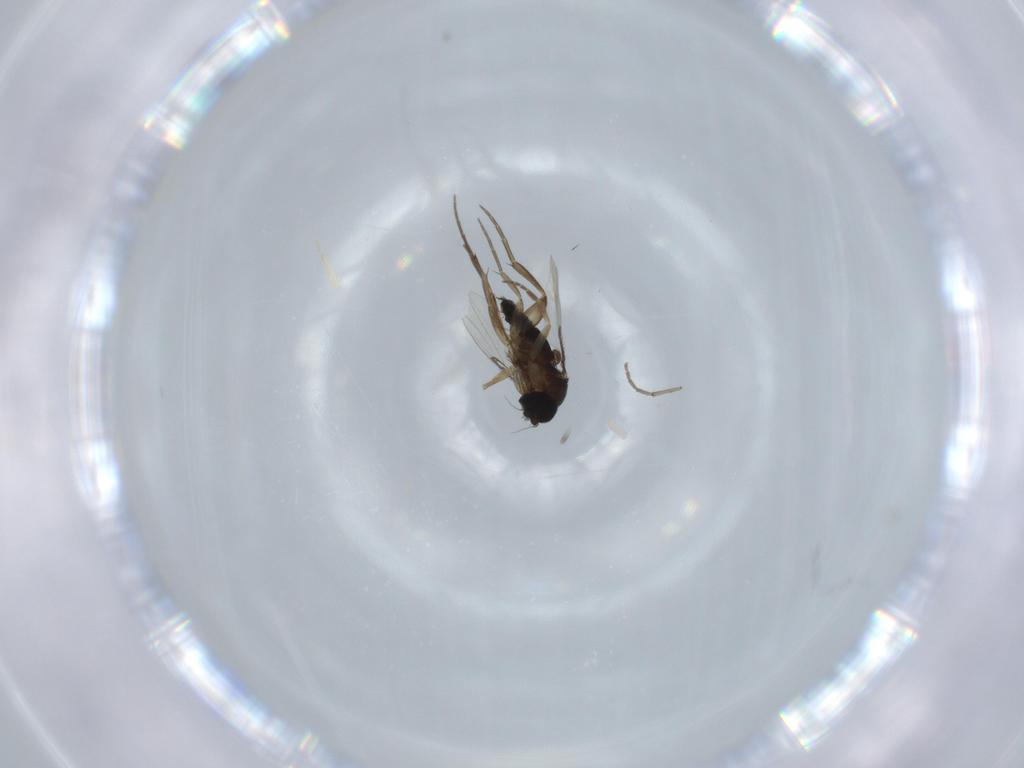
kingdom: Animalia
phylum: Arthropoda
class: Insecta
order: Diptera
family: Phoridae
